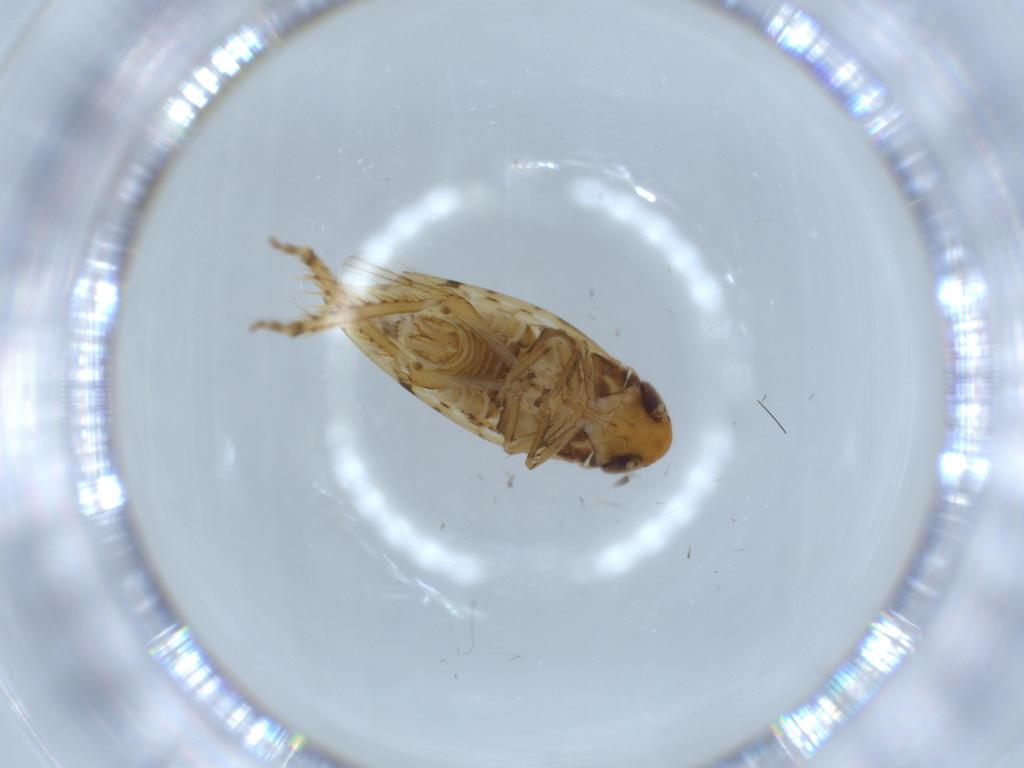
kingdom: Animalia
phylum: Arthropoda
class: Insecta
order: Hemiptera
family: Cicadellidae
